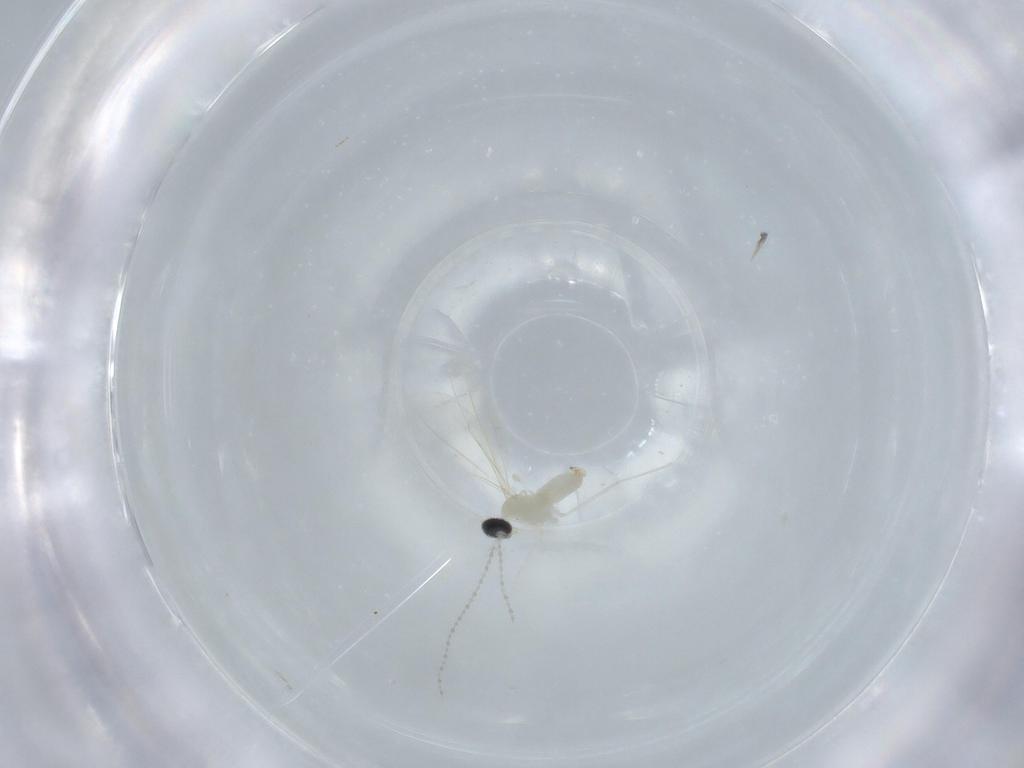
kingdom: Animalia
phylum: Arthropoda
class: Insecta
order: Diptera
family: Cecidomyiidae
